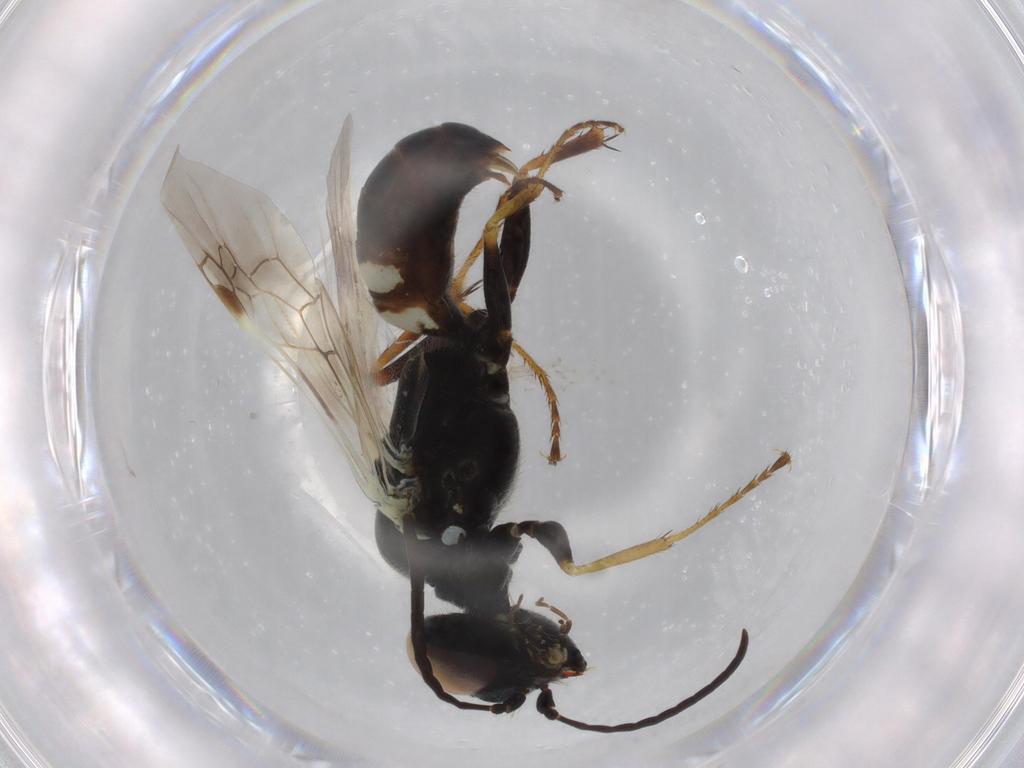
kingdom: Animalia
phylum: Arthropoda
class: Insecta
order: Hymenoptera
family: Crabronidae
